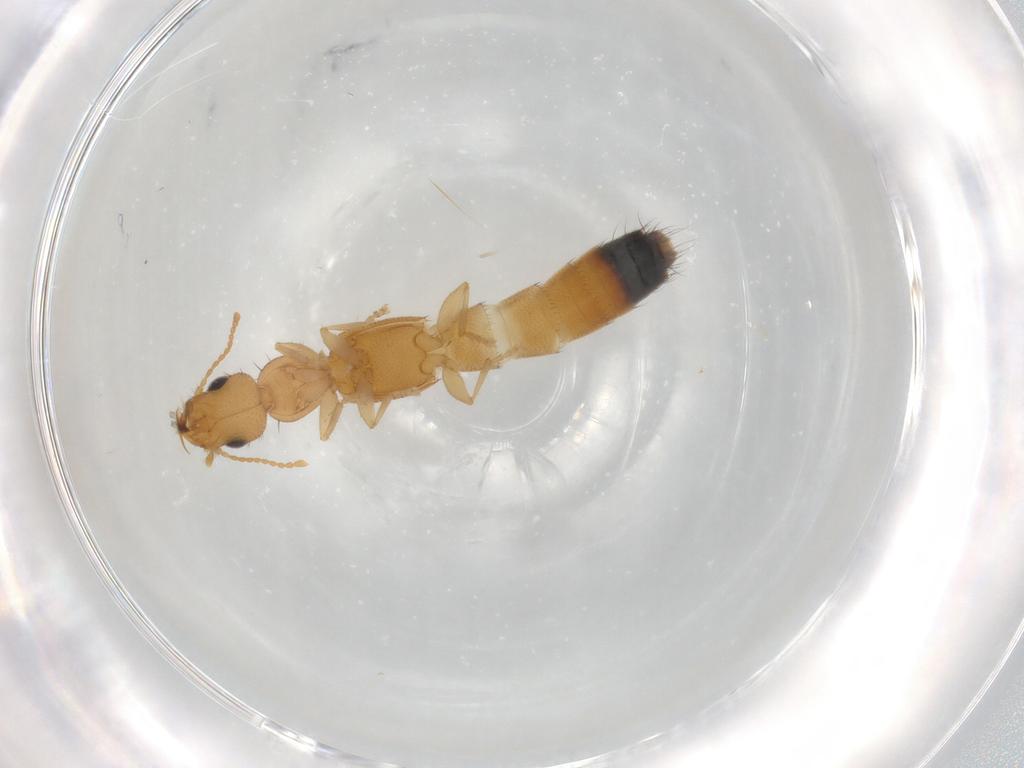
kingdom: Animalia
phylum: Arthropoda
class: Insecta
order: Coleoptera
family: Staphylinidae
